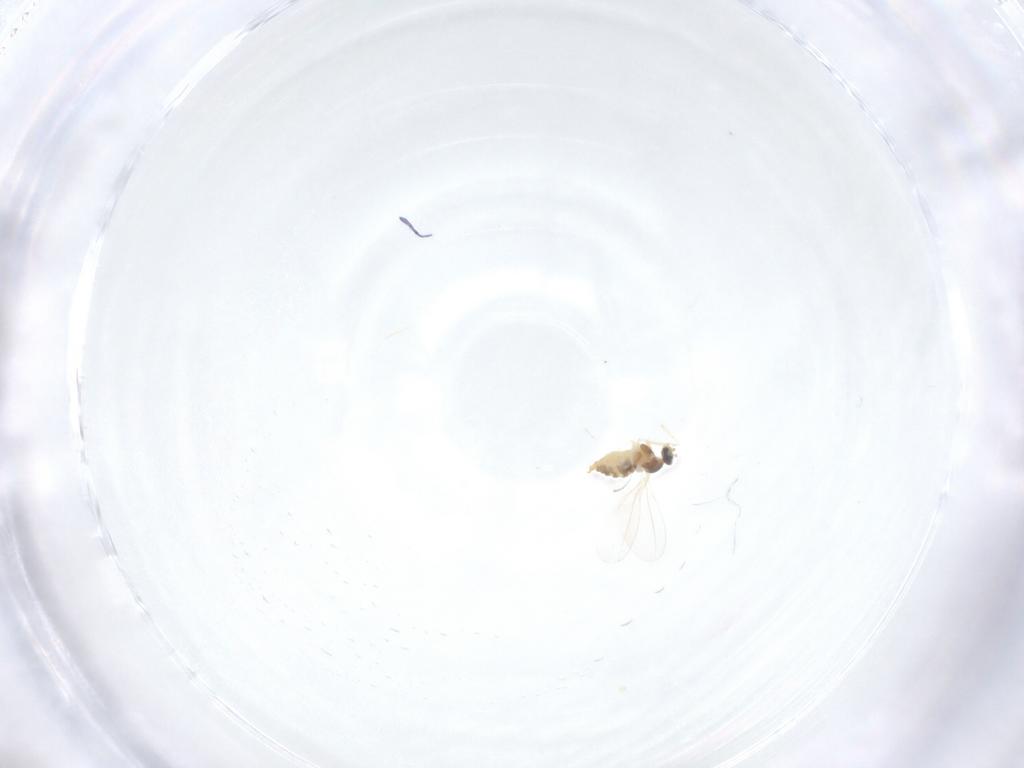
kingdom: Animalia
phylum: Arthropoda
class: Insecta
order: Diptera
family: Cecidomyiidae
